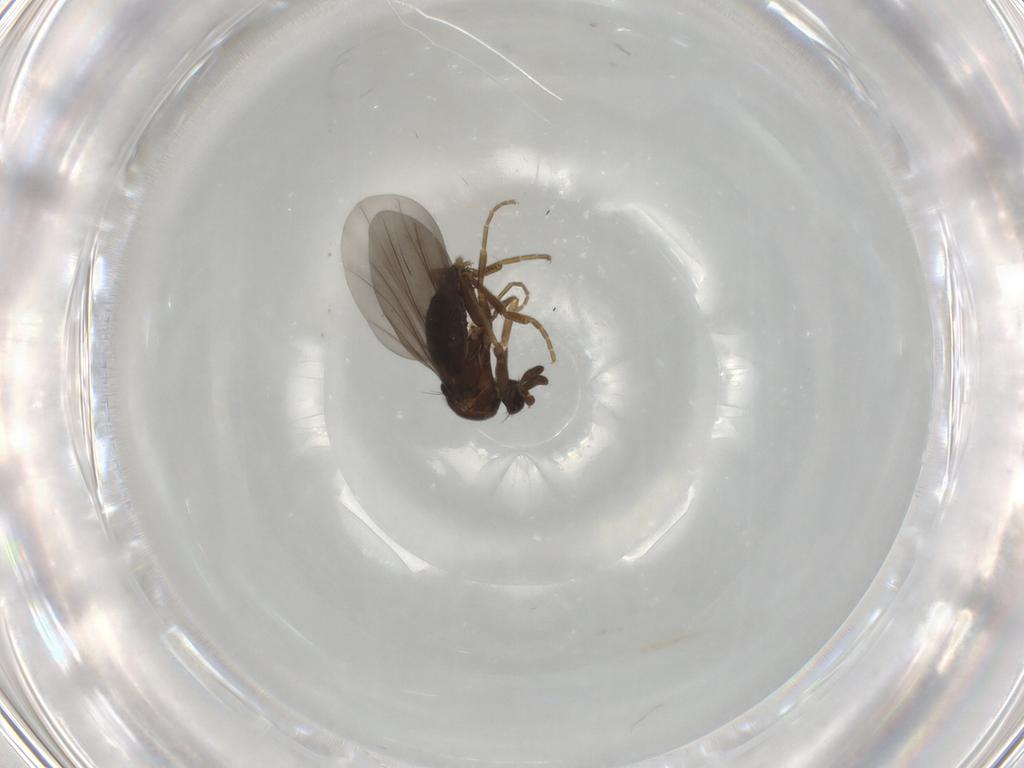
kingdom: Animalia
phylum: Arthropoda
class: Insecta
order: Diptera
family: Phoridae
